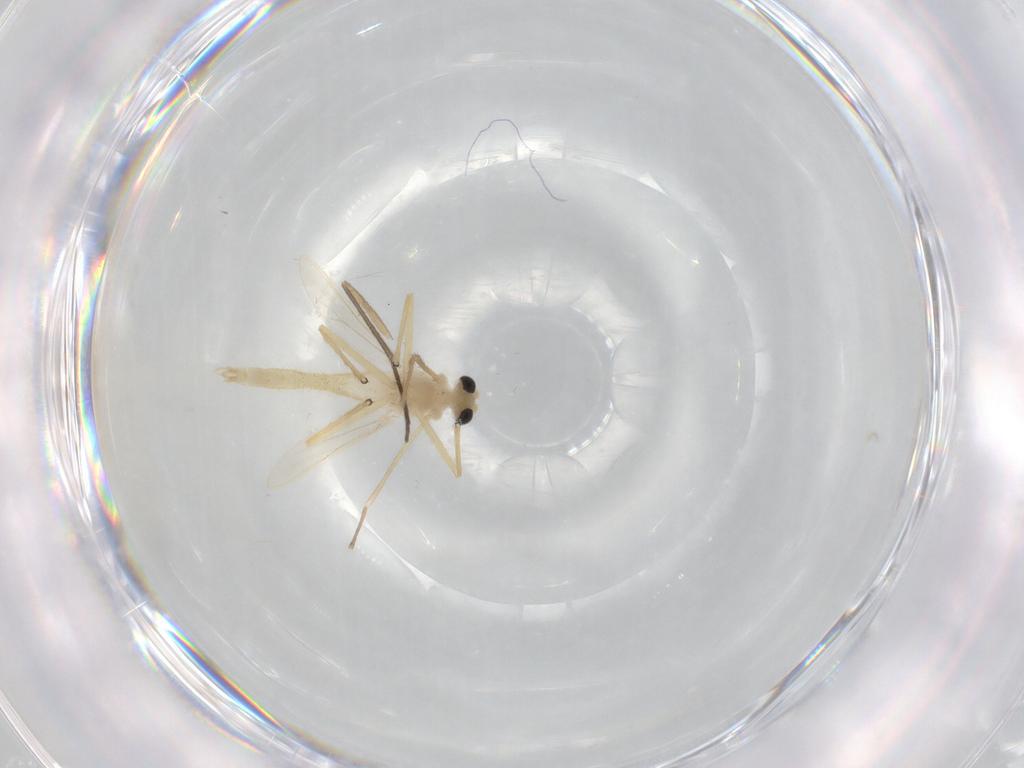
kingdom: Animalia
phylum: Arthropoda
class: Insecta
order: Diptera
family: Sciaridae
